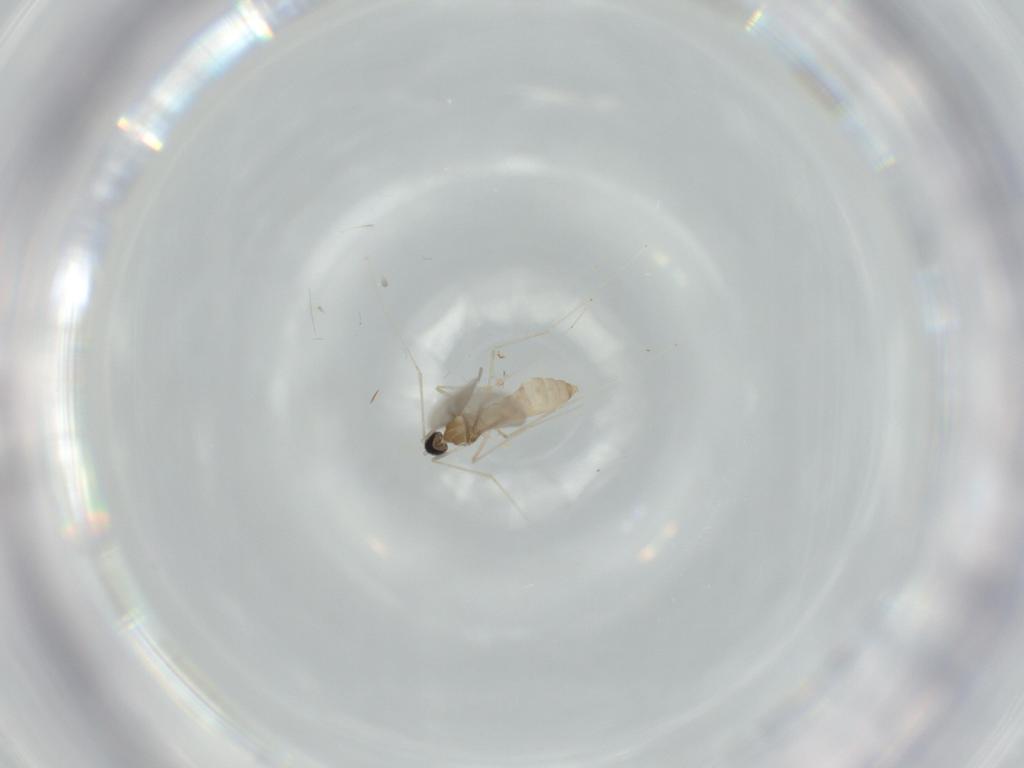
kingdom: Animalia
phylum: Arthropoda
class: Insecta
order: Diptera
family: Cecidomyiidae
